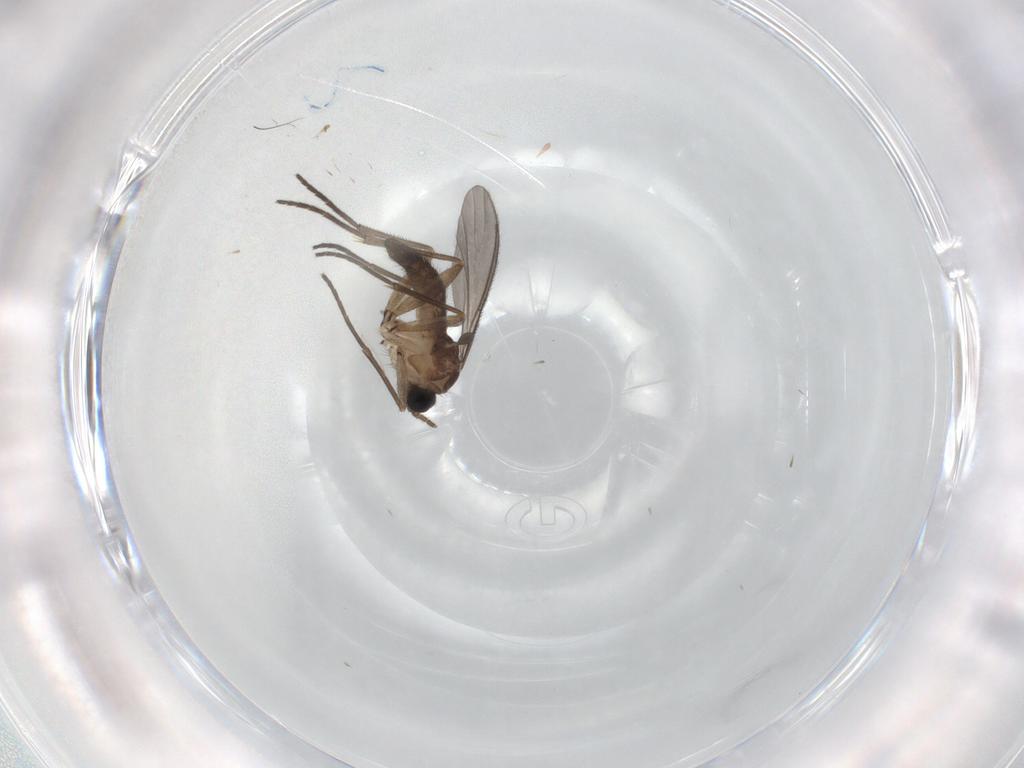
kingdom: Animalia
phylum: Arthropoda
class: Insecta
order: Diptera
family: Sciaridae
